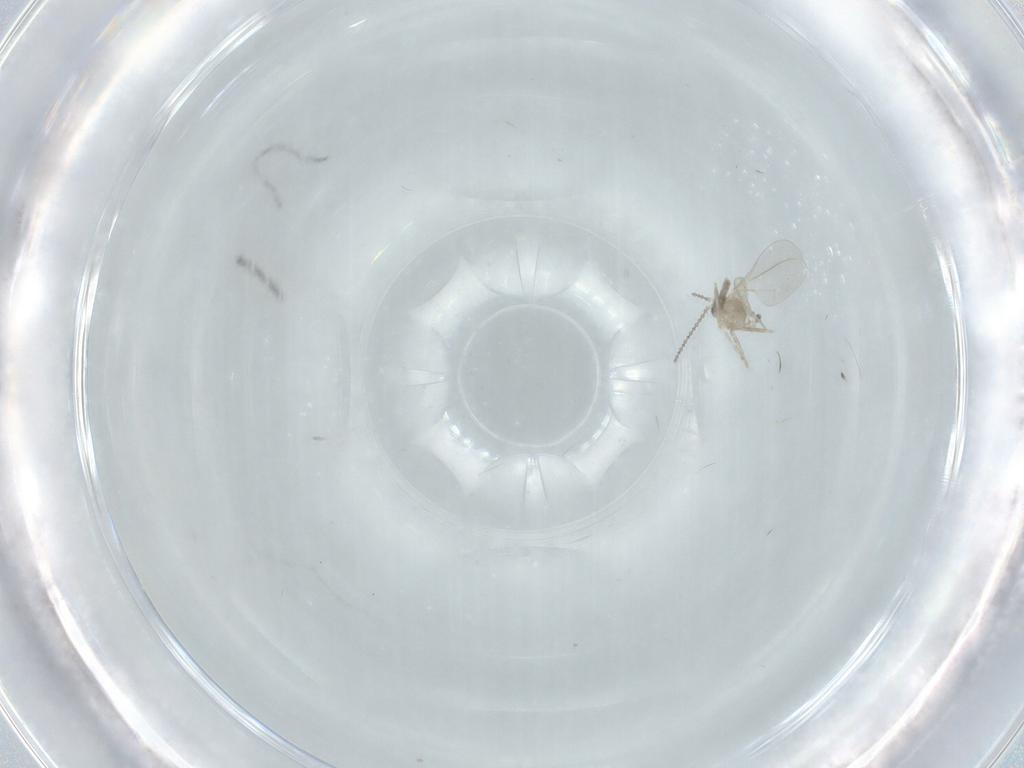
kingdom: Animalia
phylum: Arthropoda
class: Insecta
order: Diptera
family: Cecidomyiidae
